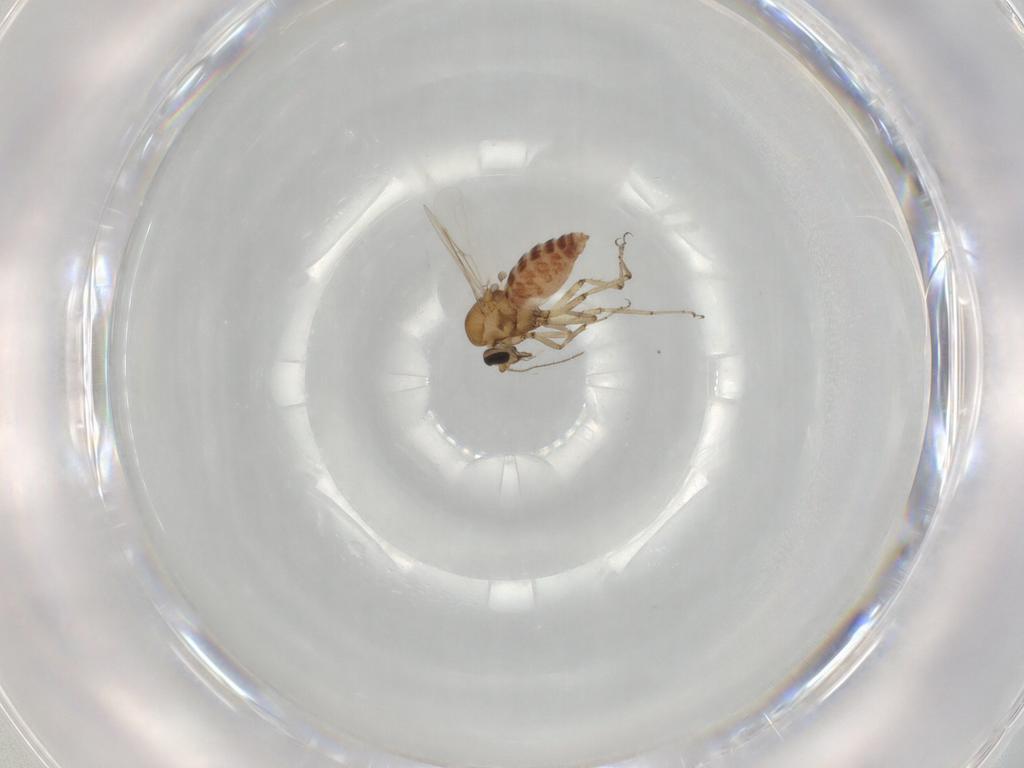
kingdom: Animalia
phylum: Arthropoda
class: Insecta
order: Diptera
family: Ceratopogonidae
